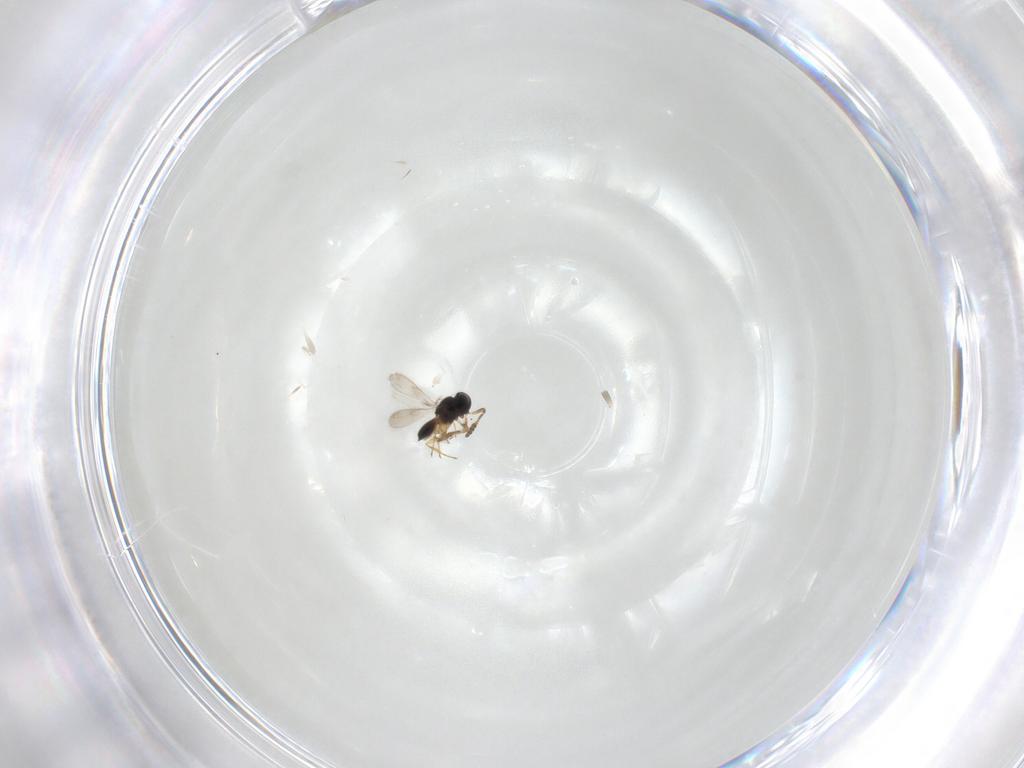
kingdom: Animalia
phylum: Arthropoda
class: Insecta
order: Hymenoptera
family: Scelionidae
